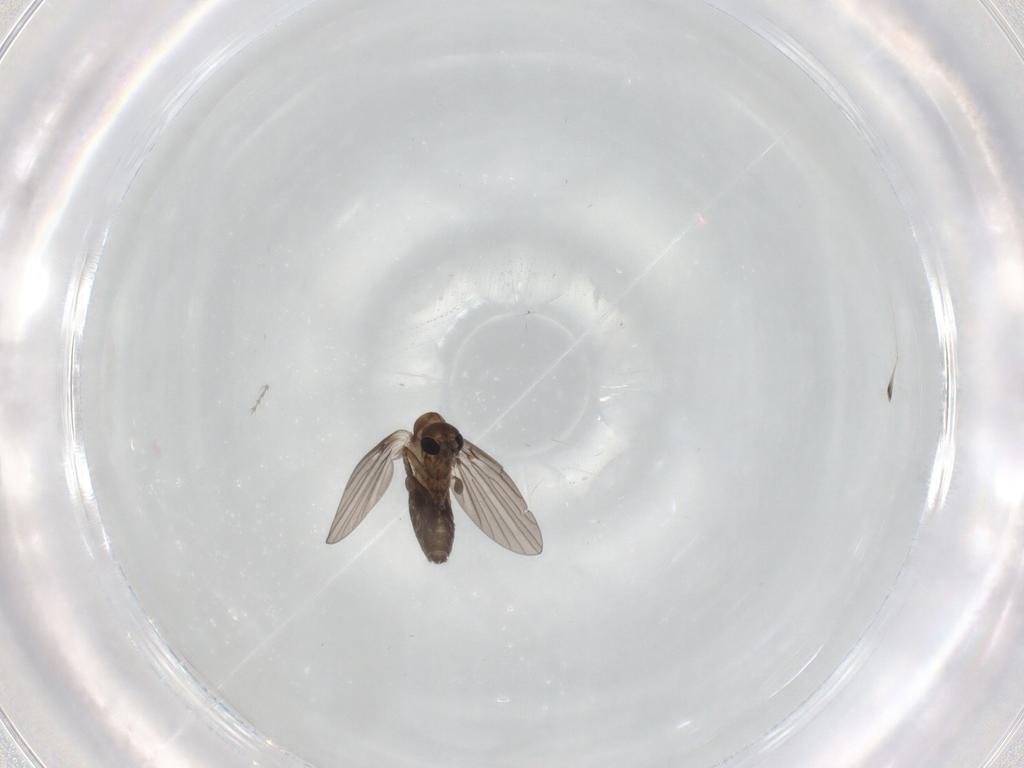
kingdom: Animalia
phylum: Arthropoda
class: Insecta
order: Diptera
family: Psychodidae
